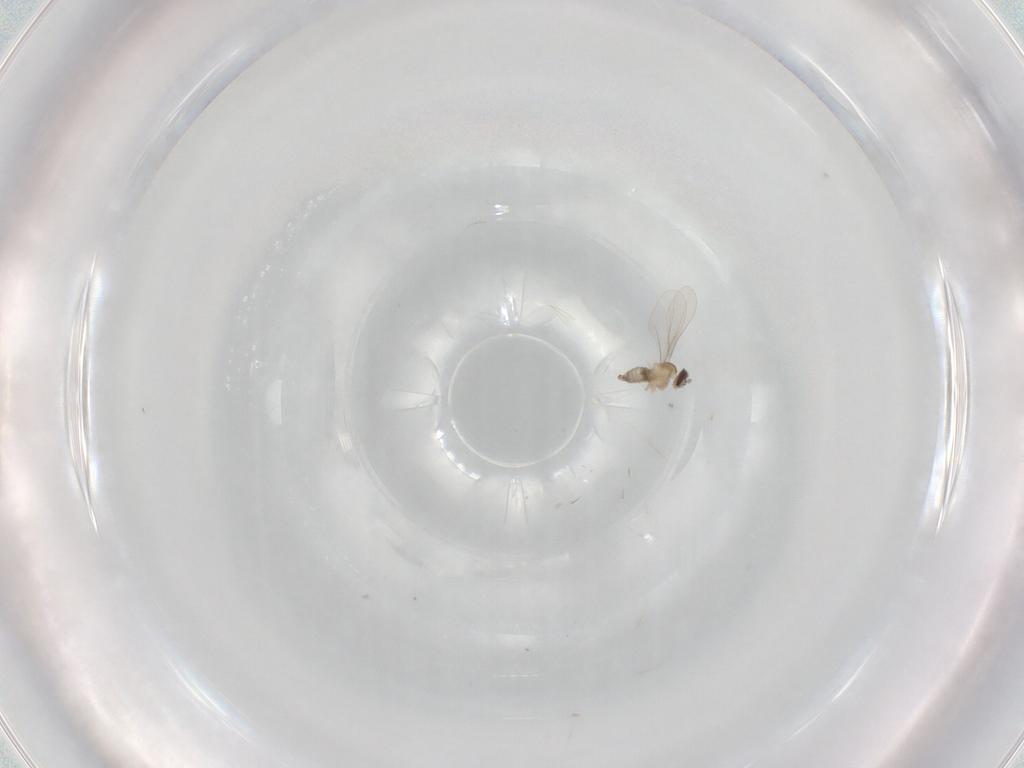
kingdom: Animalia
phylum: Arthropoda
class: Insecta
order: Diptera
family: Cecidomyiidae
